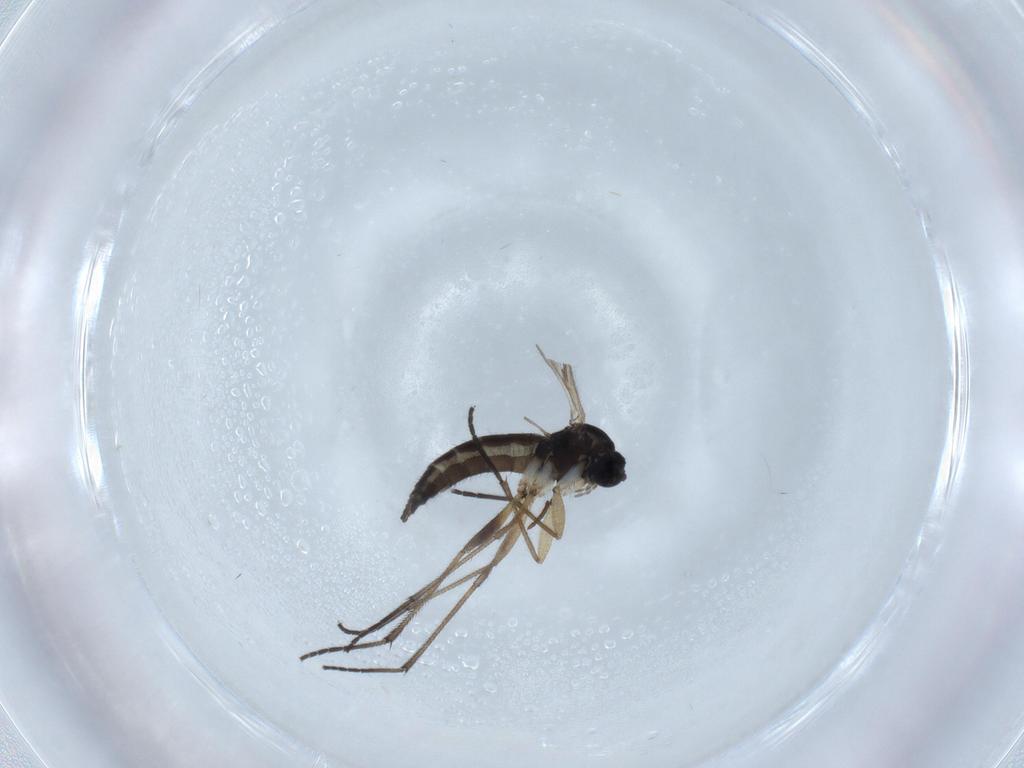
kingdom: Animalia
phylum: Arthropoda
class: Insecta
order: Diptera
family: Sciaridae
